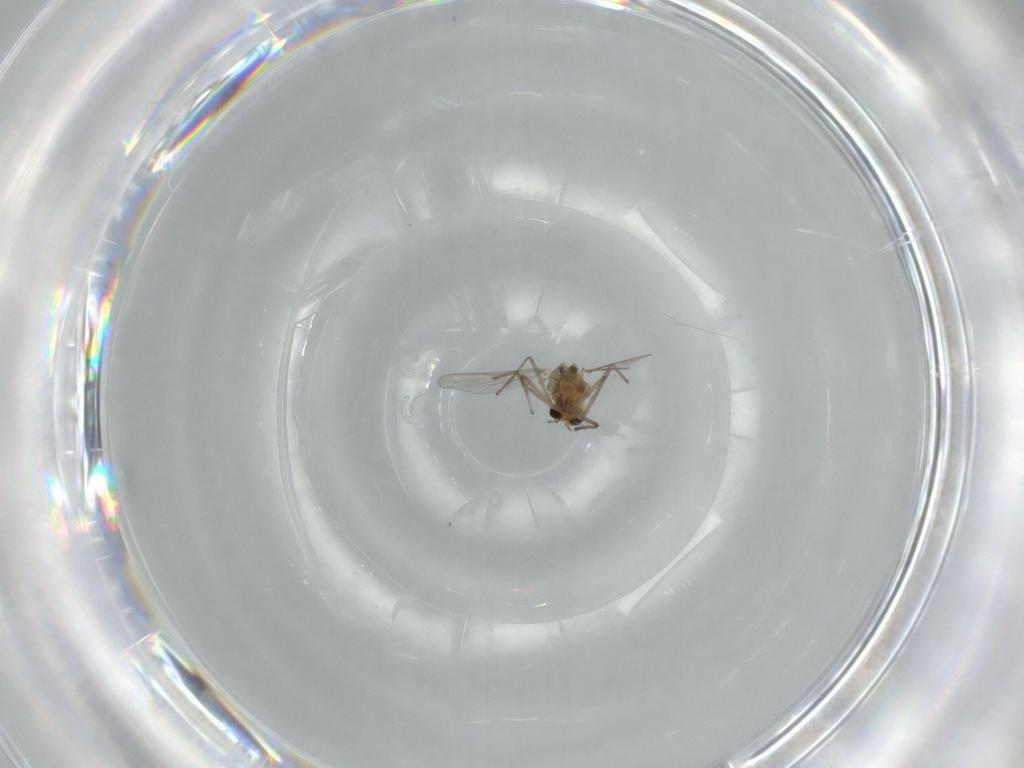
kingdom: Animalia
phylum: Arthropoda
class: Insecta
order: Diptera
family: Chironomidae
